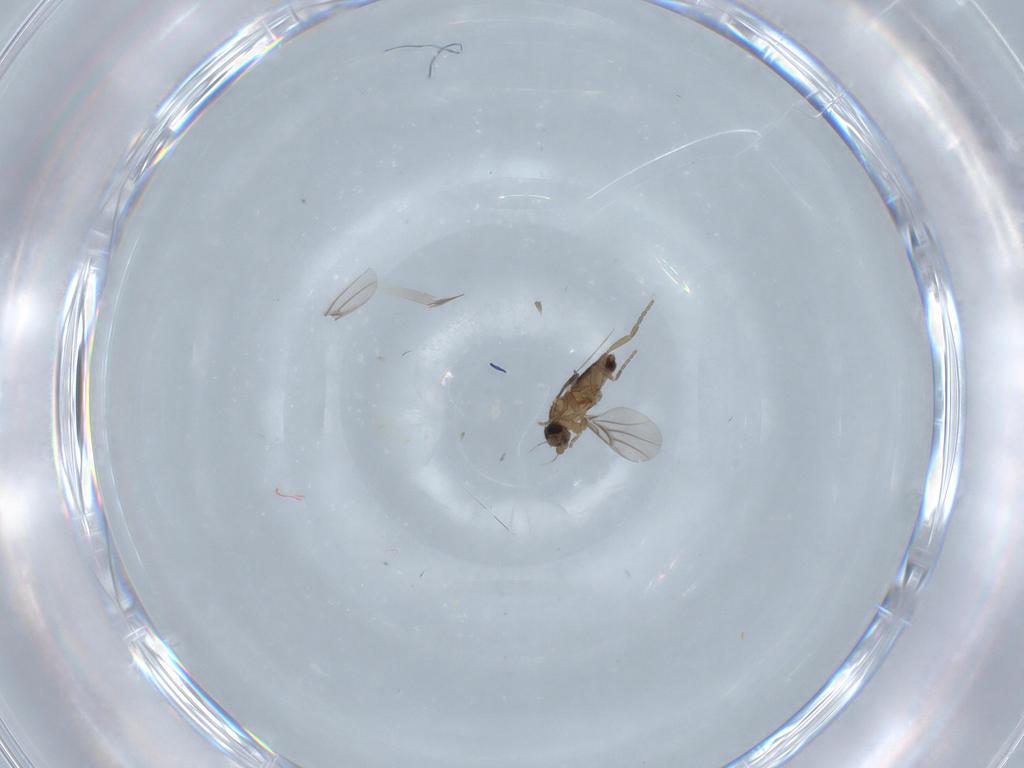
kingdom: Animalia
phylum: Arthropoda
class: Insecta
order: Diptera
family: Phoridae
